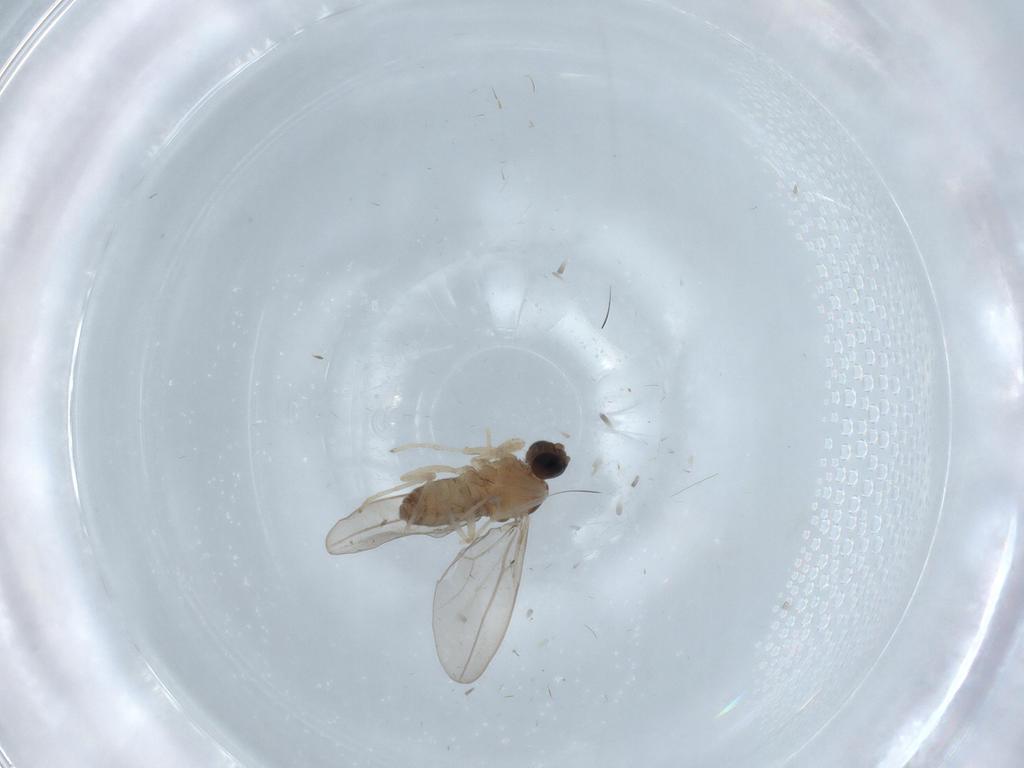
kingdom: Animalia
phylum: Arthropoda
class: Insecta
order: Diptera
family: Cecidomyiidae
